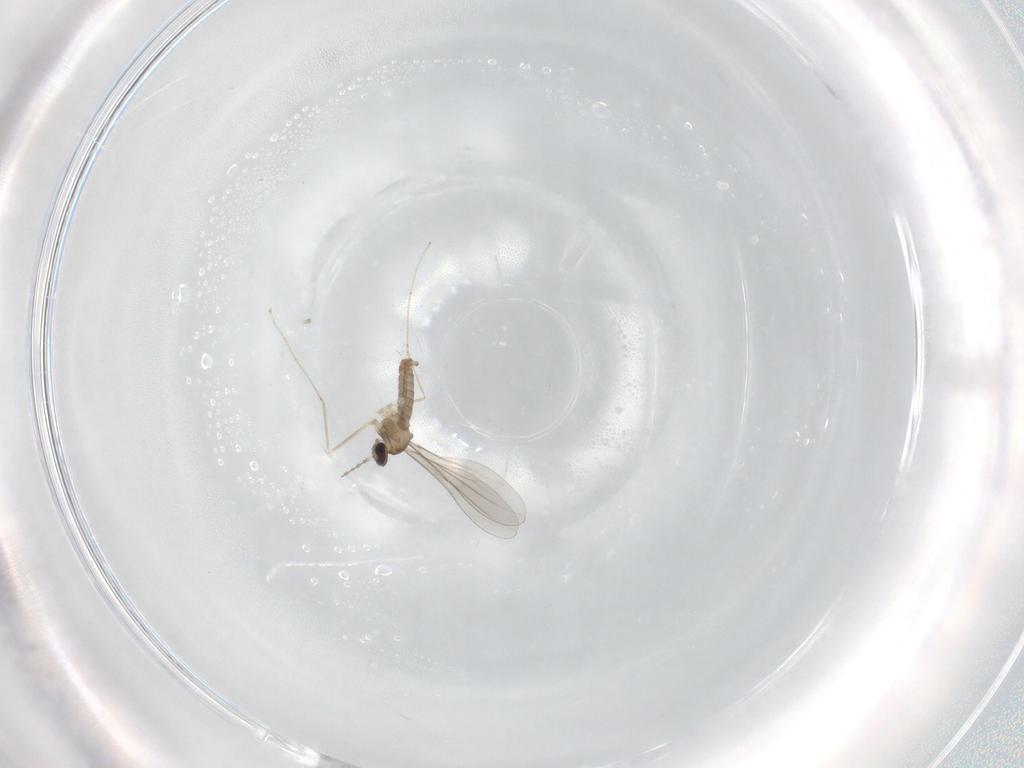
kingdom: Animalia
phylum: Arthropoda
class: Insecta
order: Diptera
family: Cecidomyiidae
